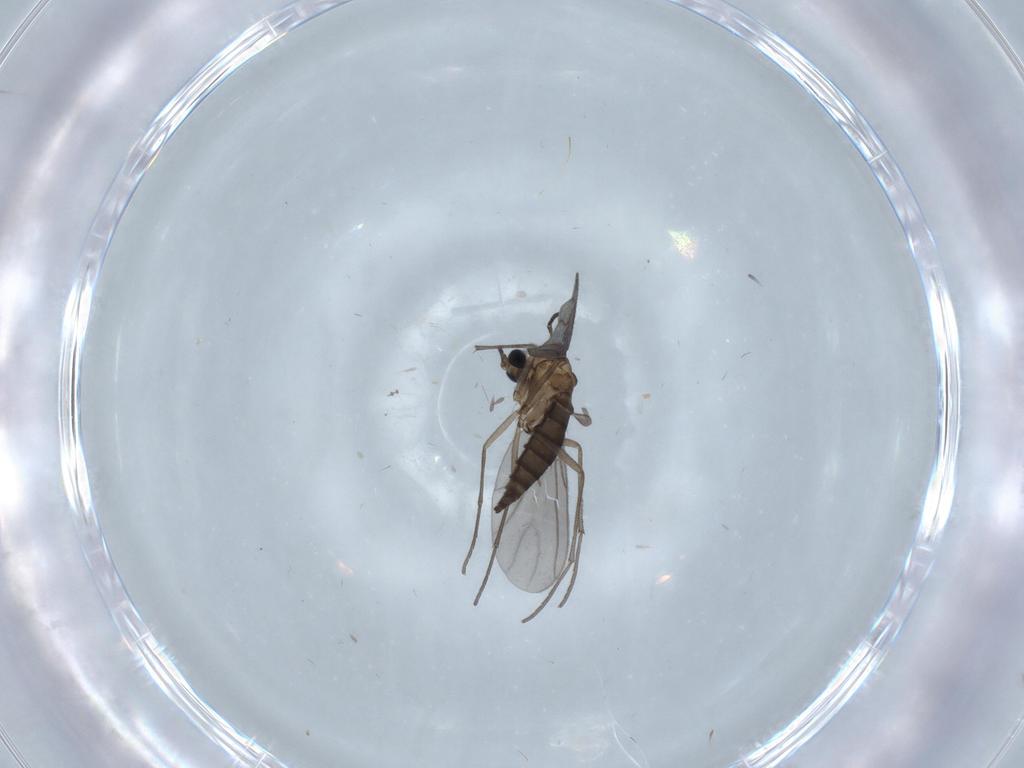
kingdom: Animalia
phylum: Arthropoda
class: Insecta
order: Diptera
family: Sciaridae
